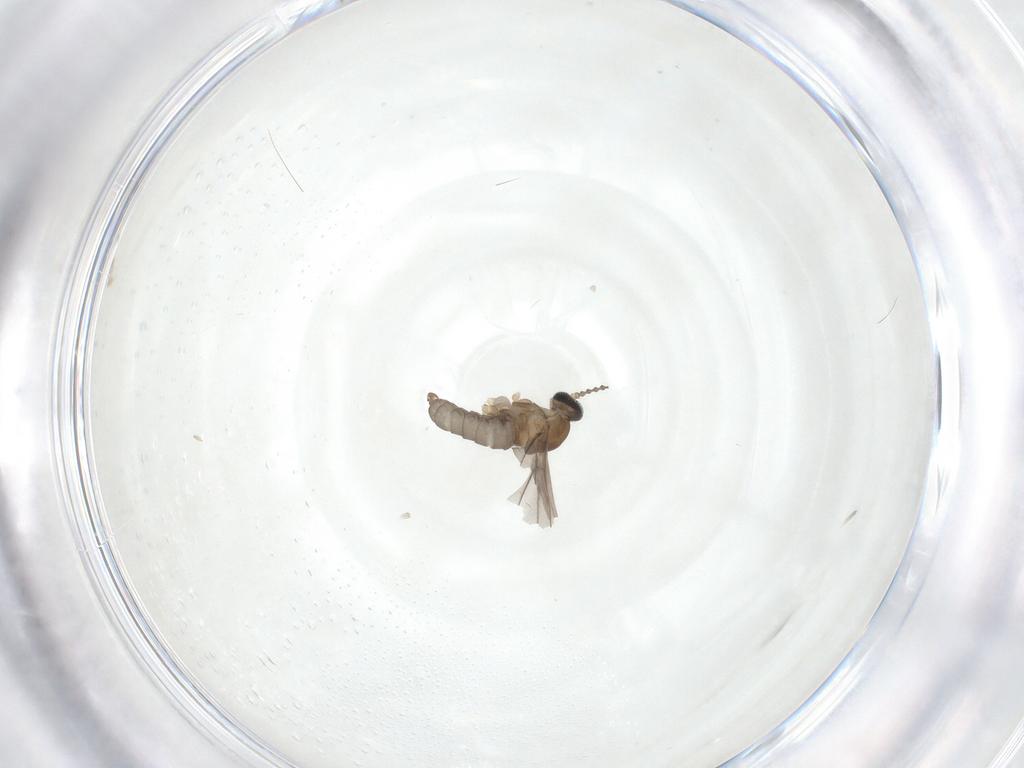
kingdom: Animalia
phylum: Arthropoda
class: Insecta
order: Diptera
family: Cecidomyiidae
